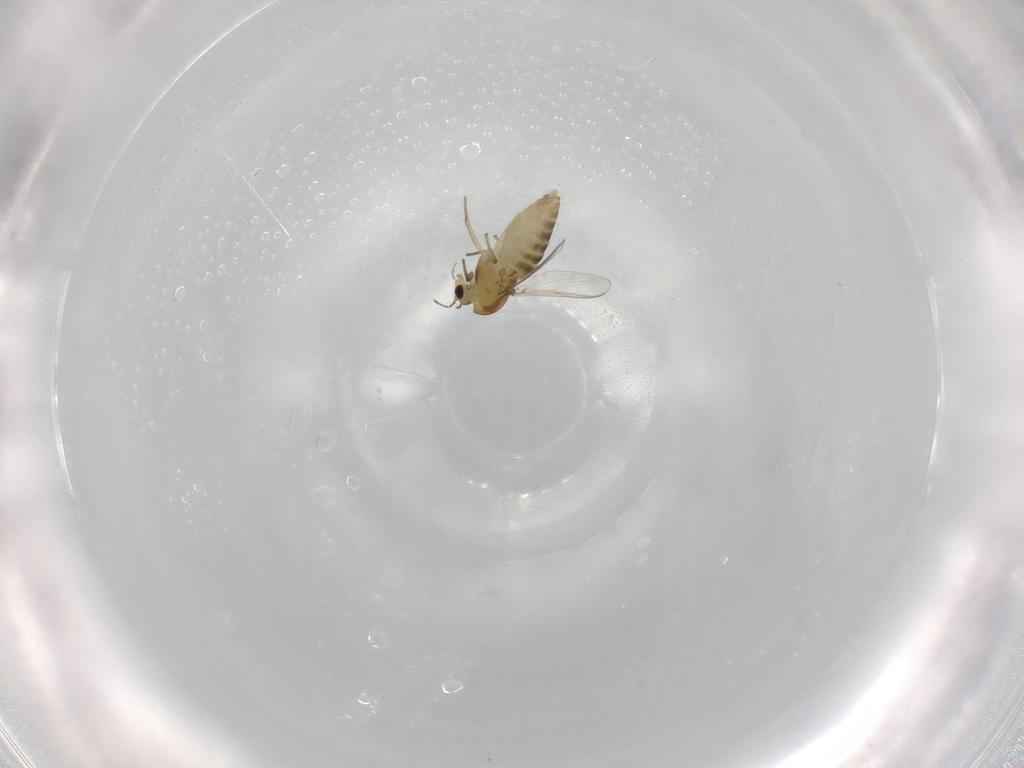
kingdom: Animalia
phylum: Arthropoda
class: Insecta
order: Diptera
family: Chironomidae
